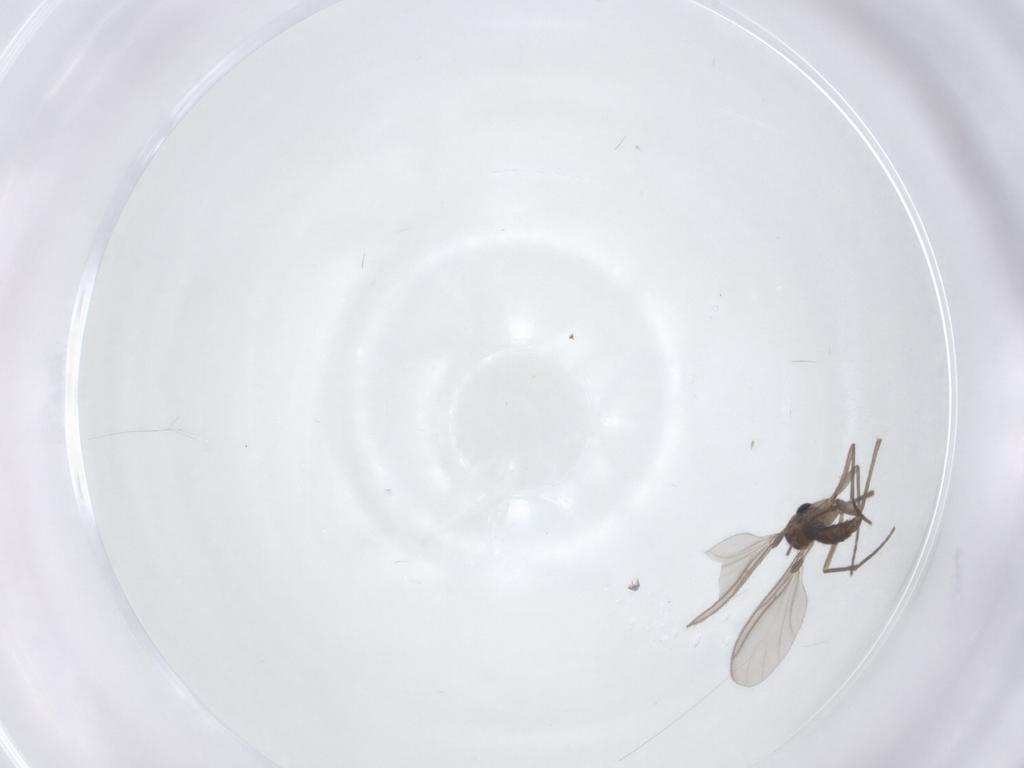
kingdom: Animalia
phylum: Arthropoda
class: Insecta
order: Diptera
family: Sciaridae
